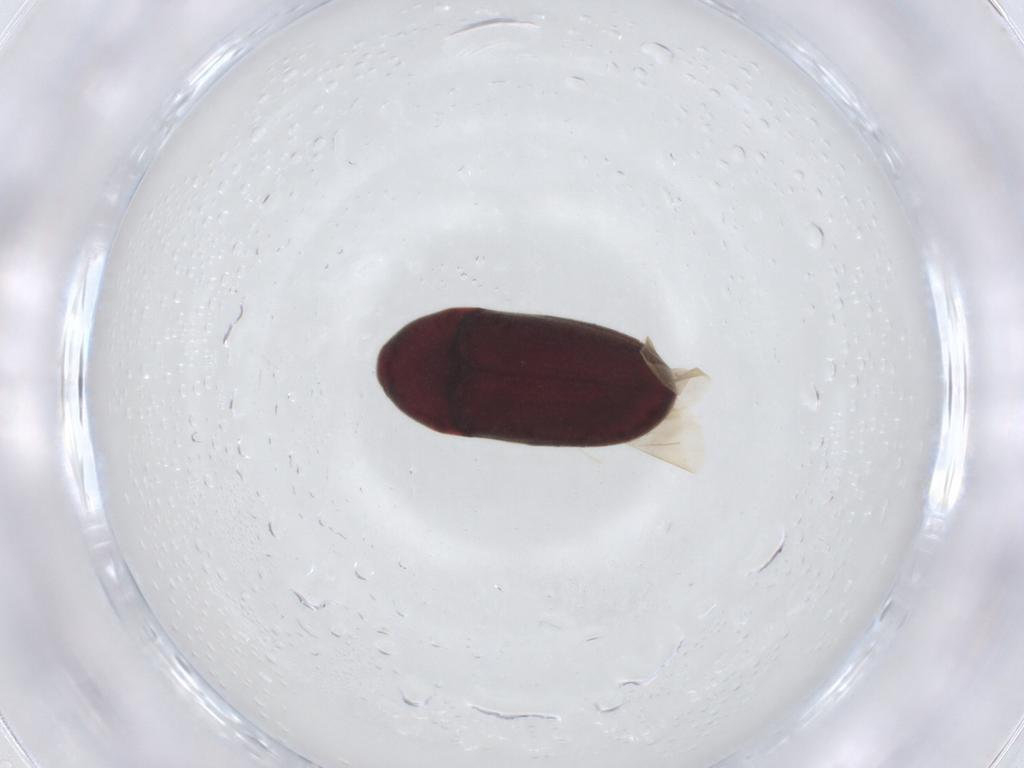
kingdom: Animalia
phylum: Arthropoda
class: Insecta
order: Coleoptera
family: Throscidae
